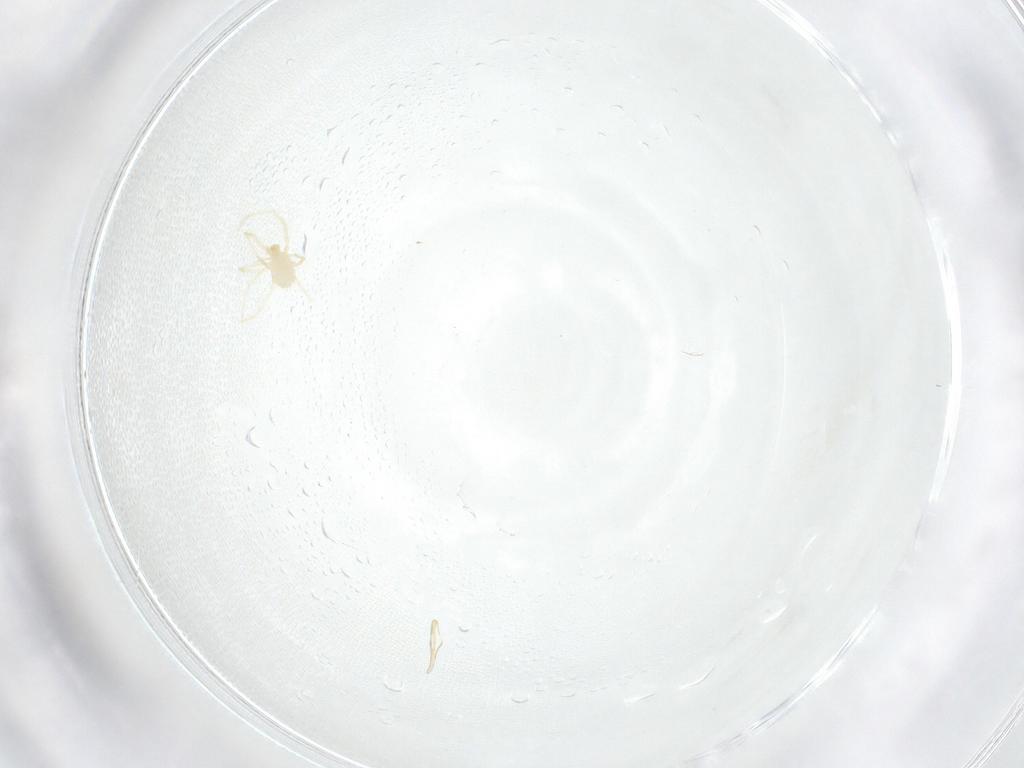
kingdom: Animalia
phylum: Arthropoda
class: Arachnida
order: Trombidiformes
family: Erythraeidae
